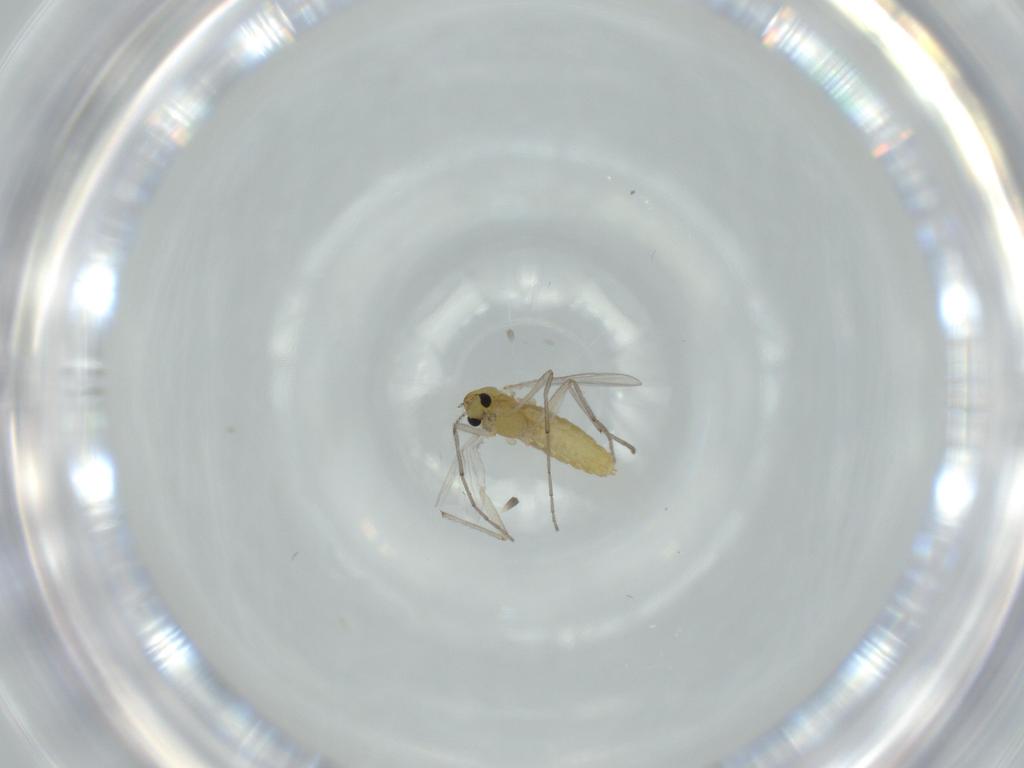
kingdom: Animalia
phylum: Arthropoda
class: Insecta
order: Diptera
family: Chironomidae
